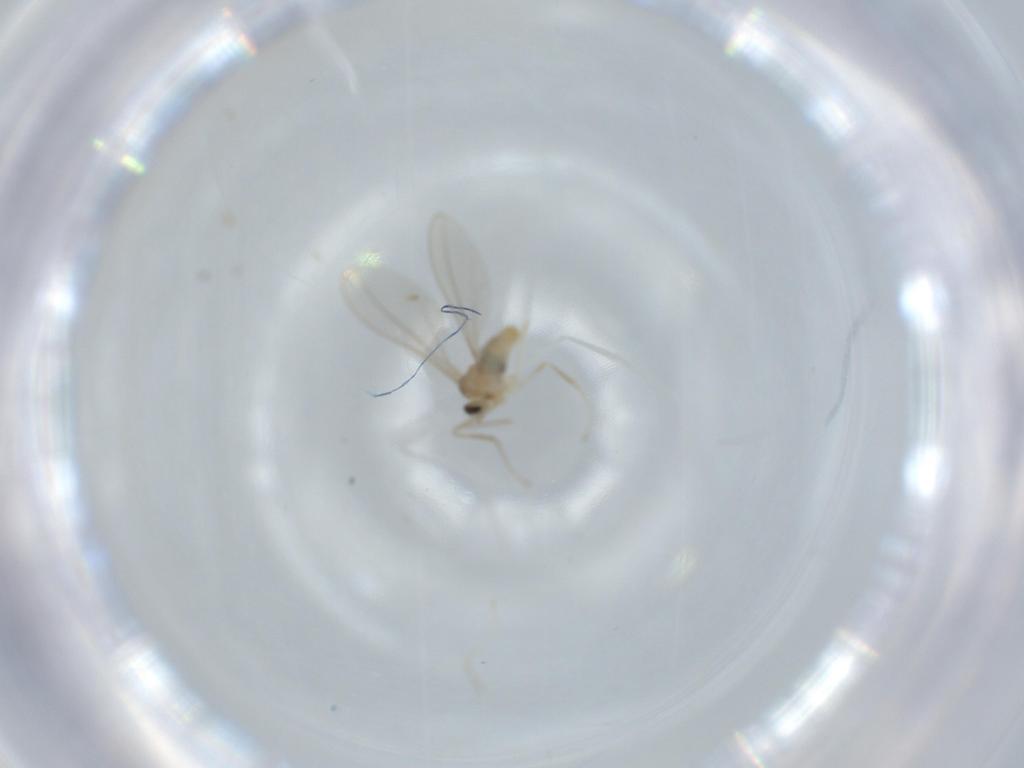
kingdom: Animalia
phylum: Arthropoda
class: Insecta
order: Diptera
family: Cecidomyiidae
